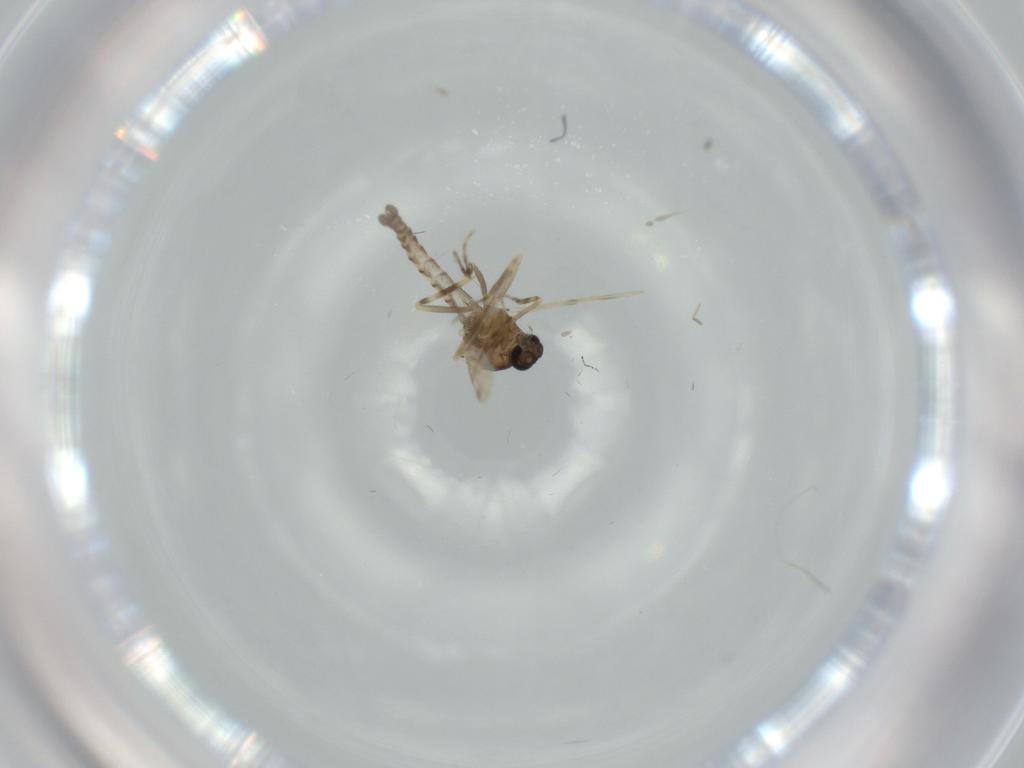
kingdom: Animalia
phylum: Arthropoda
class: Insecta
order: Diptera
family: Ceratopogonidae
